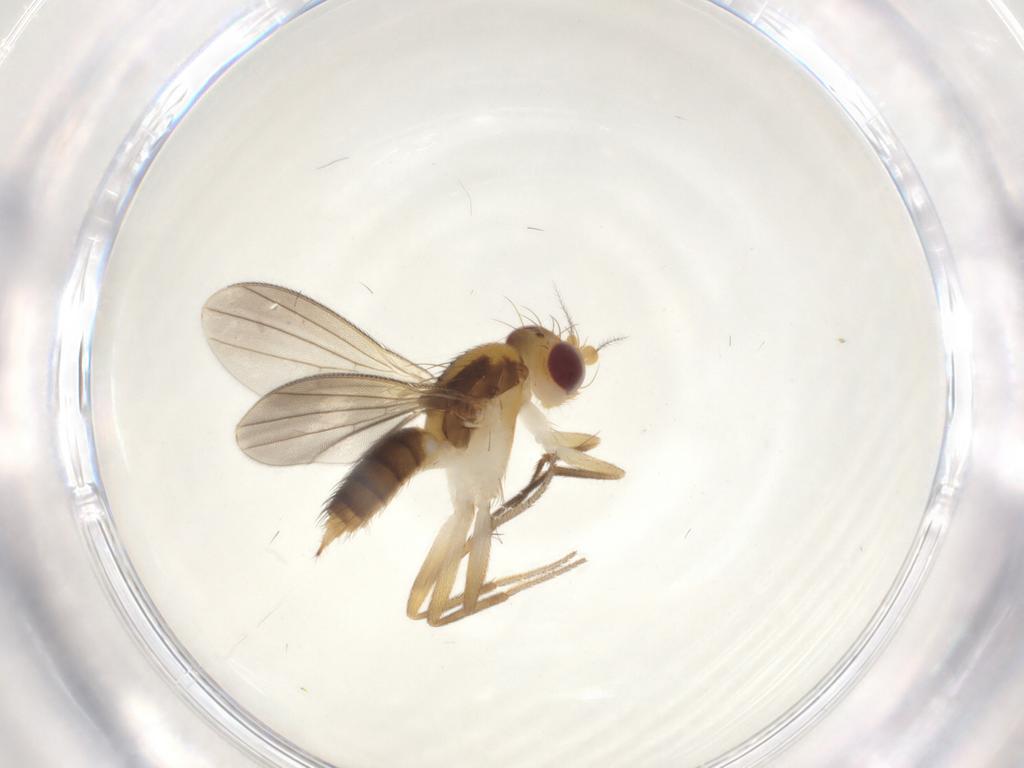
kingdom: Animalia
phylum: Arthropoda
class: Insecta
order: Diptera
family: Agromyzidae
